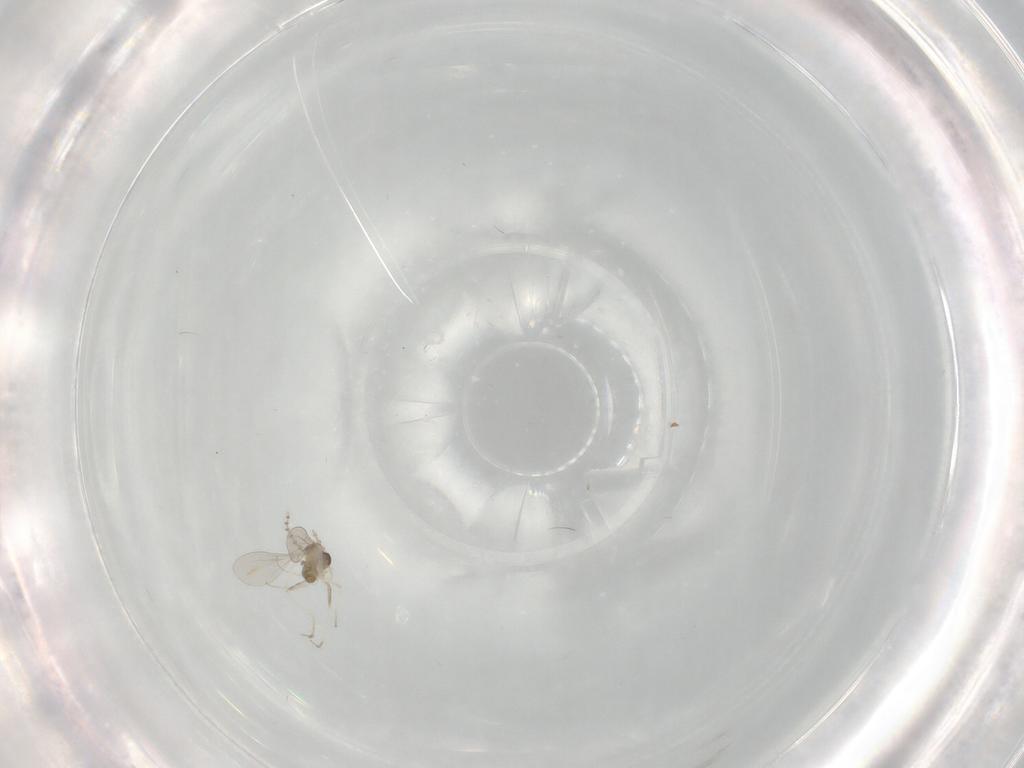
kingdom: Animalia
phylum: Arthropoda
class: Insecta
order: Diptera
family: Cecidomyiidae
